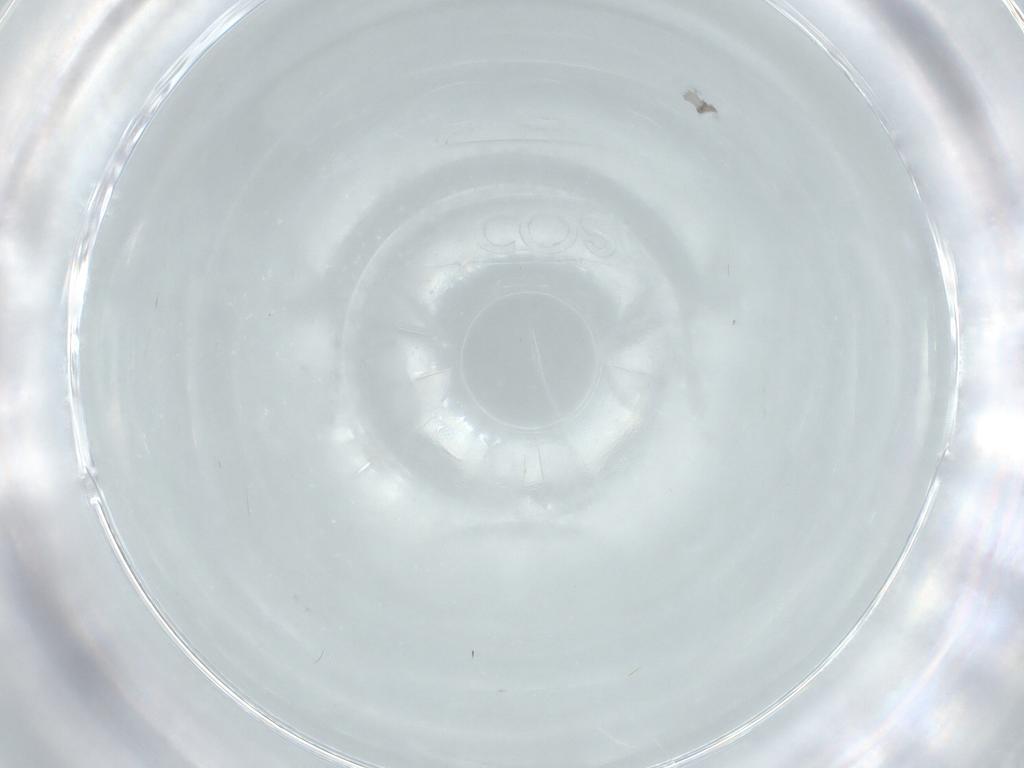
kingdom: Animalia
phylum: Arthropoda
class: Insecta
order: Diptera
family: Cecidomyiidae
